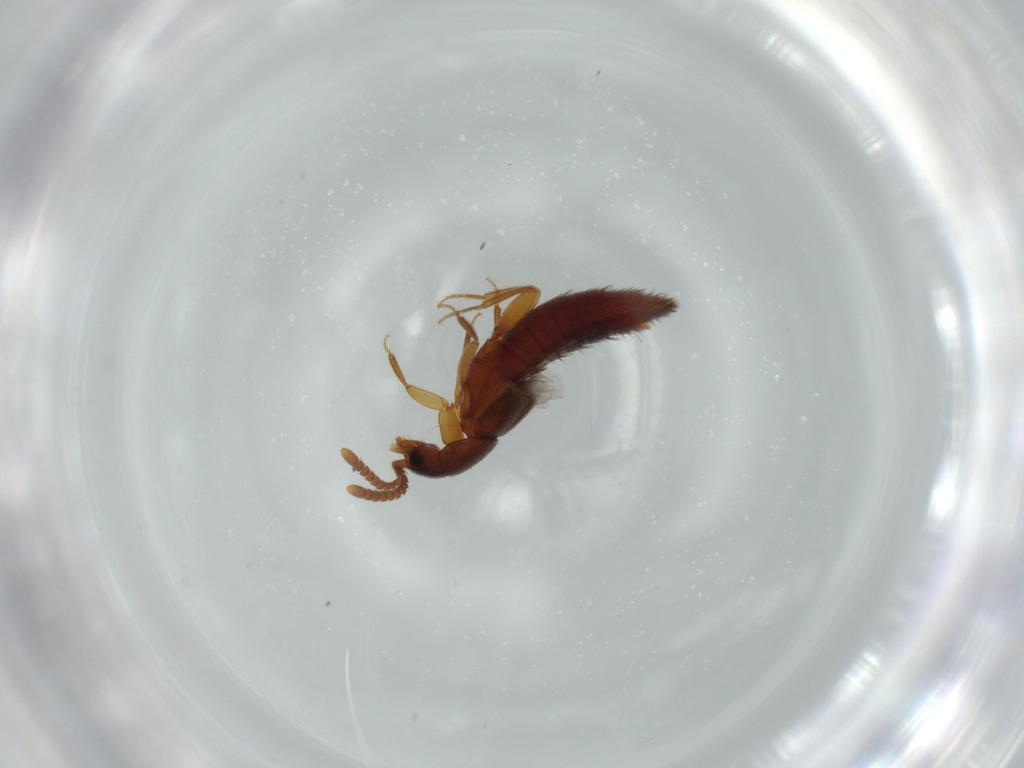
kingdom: Animalia
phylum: Arthropoda
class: Insecta
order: Coleoptera
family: Staphylinidae
